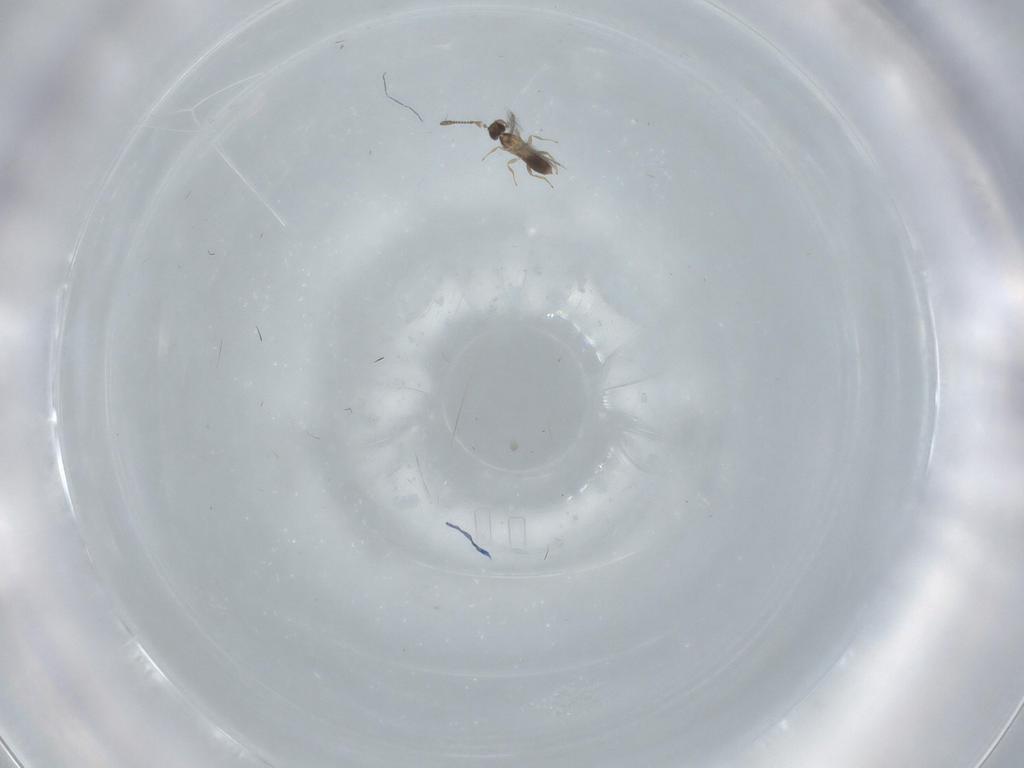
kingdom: Animalia
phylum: Arthropoda
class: Insecta
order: Hymenoptera
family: Mymaridae
